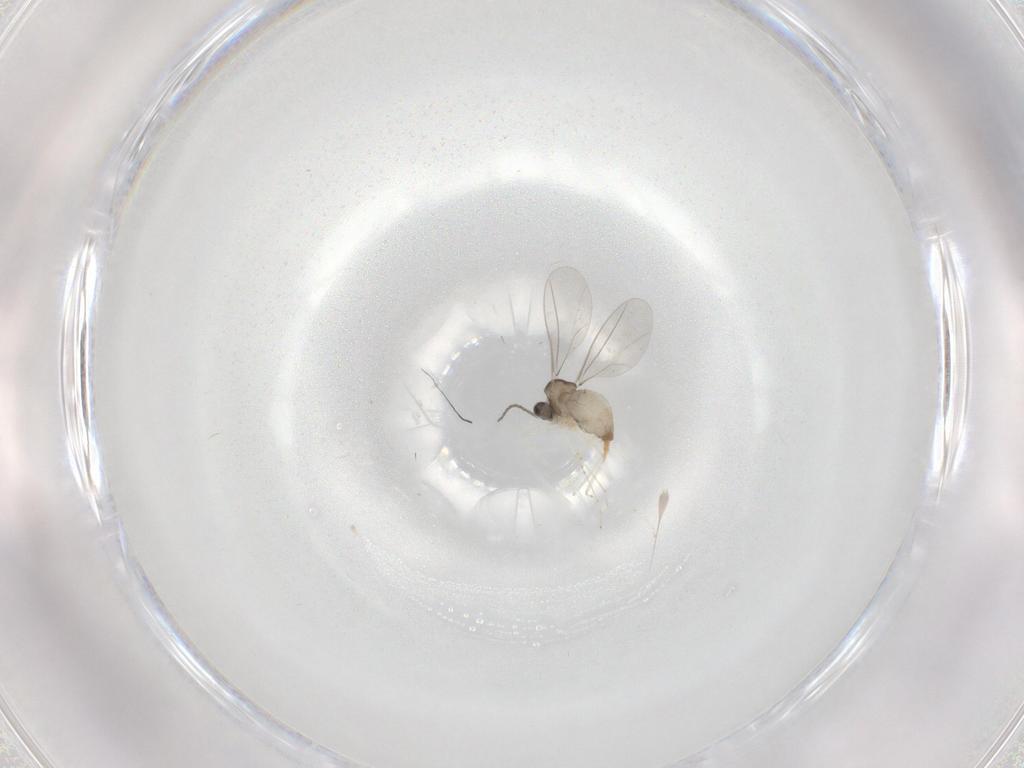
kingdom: Animalia
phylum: Arthropoda
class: Insecta
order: Diptera
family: Cecidomyiidae
